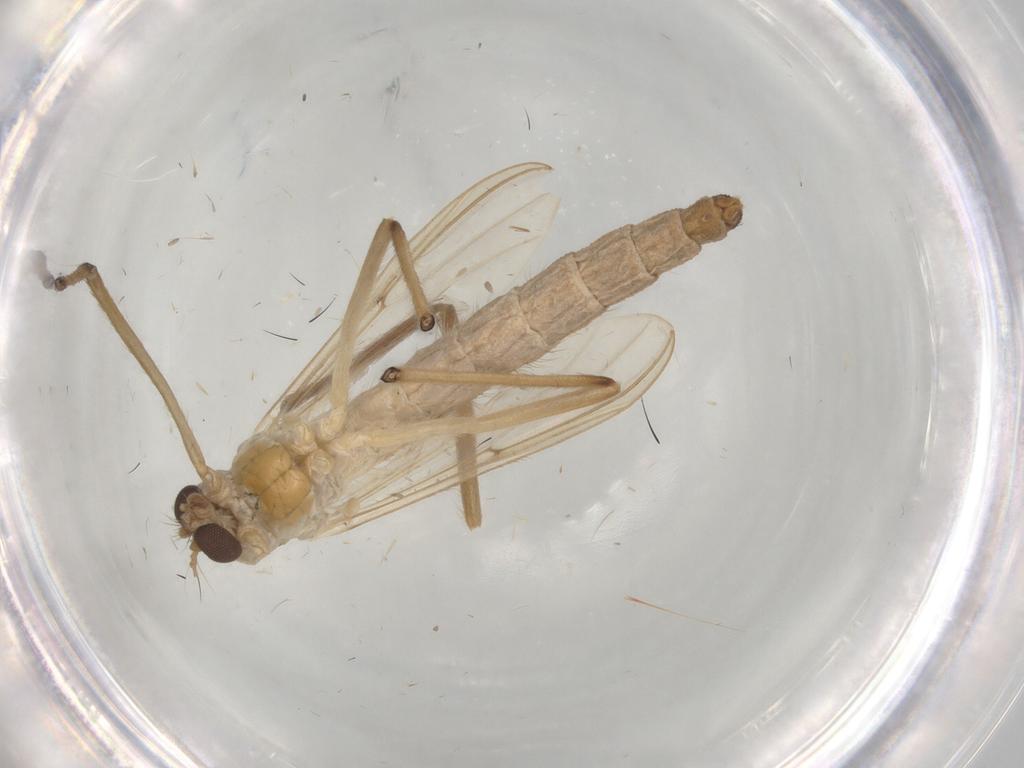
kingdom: Animalia
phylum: Arthropoda
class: Insecta
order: Diptera
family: Chironomidae
